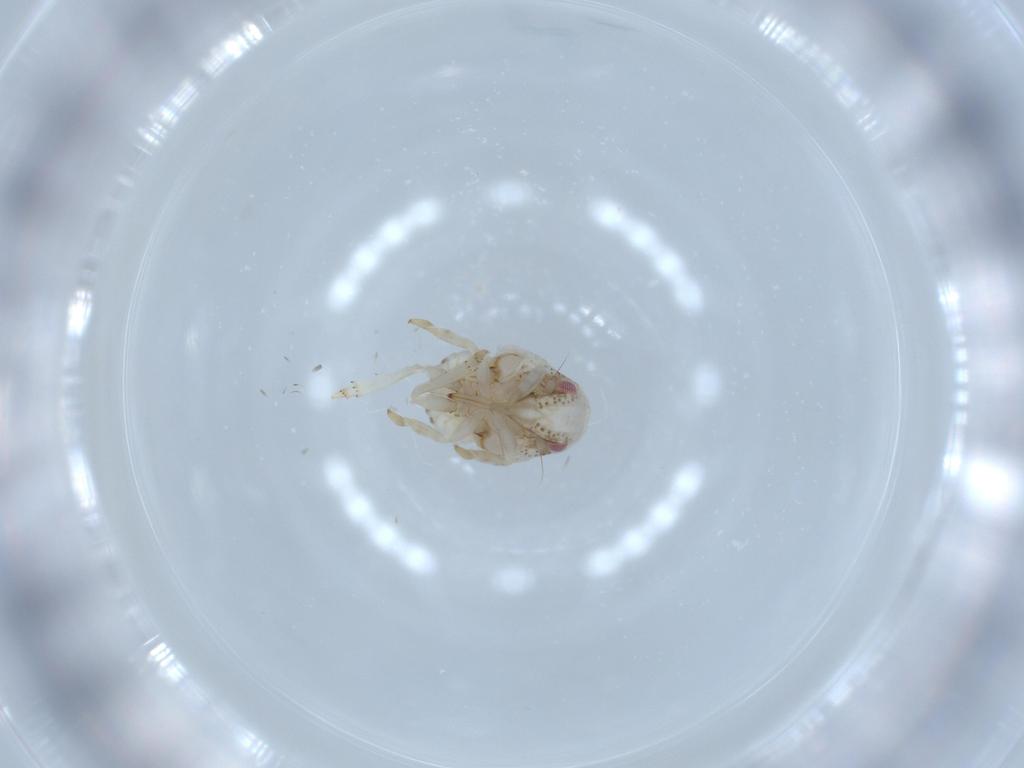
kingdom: Animalia
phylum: Arthropoda
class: Insecta
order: Hemiptera
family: Acanaloniidae
